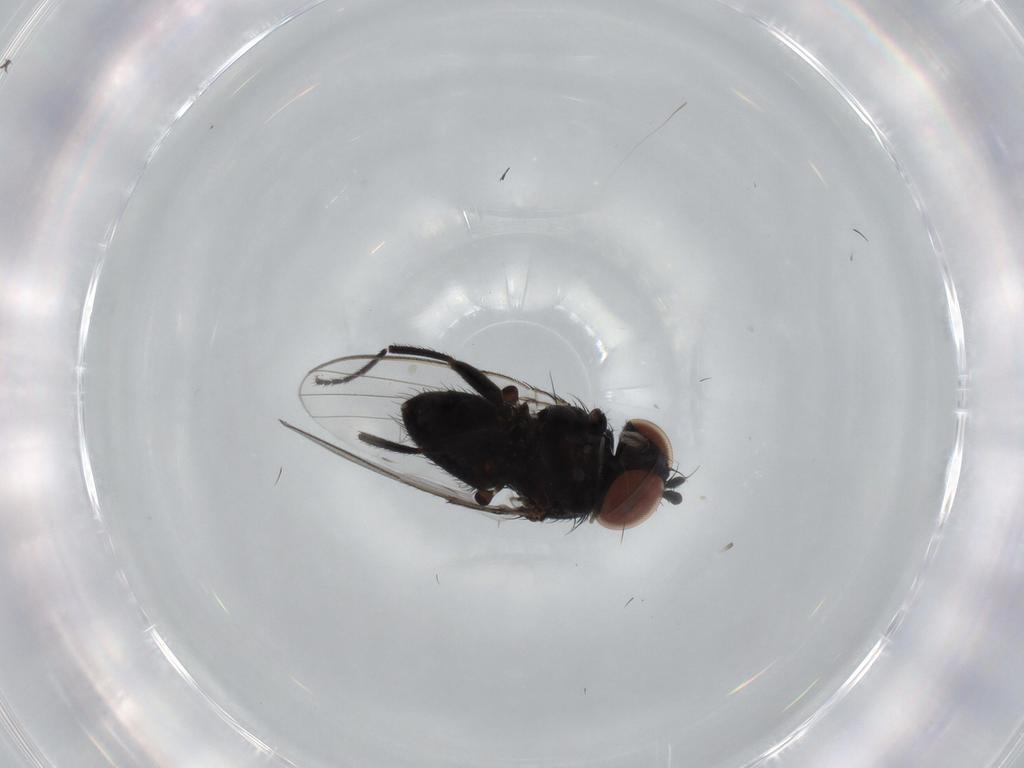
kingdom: Animalia
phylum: Arthropoda
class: Insecta
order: Diptera
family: Milichiidae
